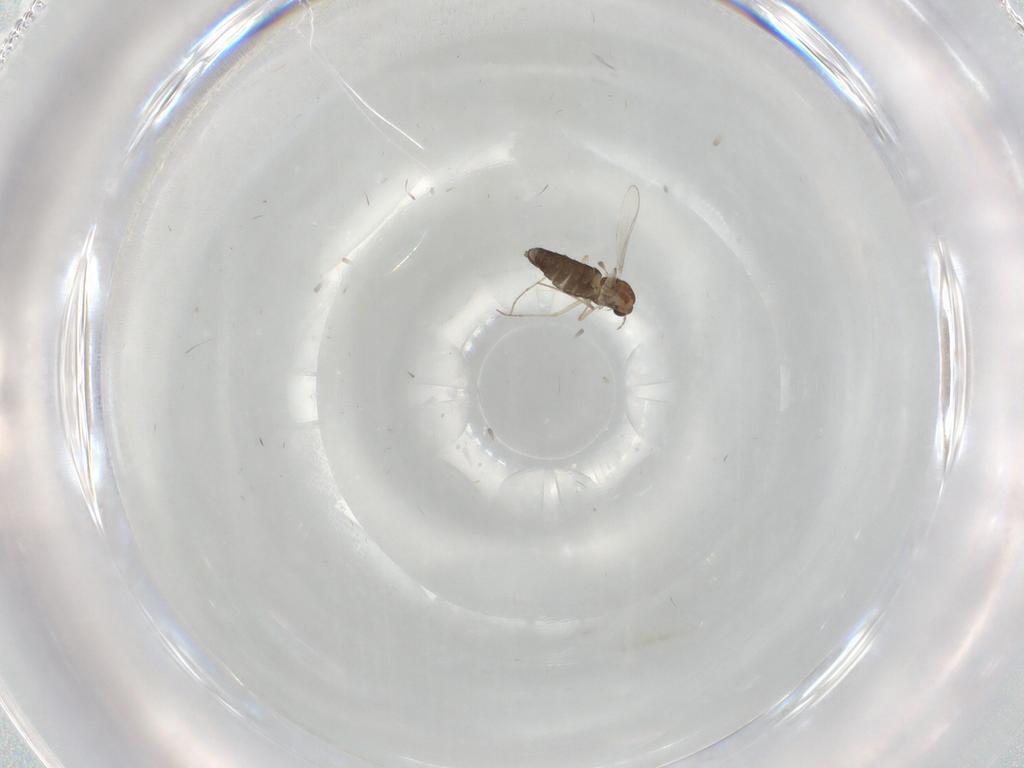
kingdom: Animalia
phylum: Arthropoda
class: Insecta
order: Diptera
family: Chironomidae
